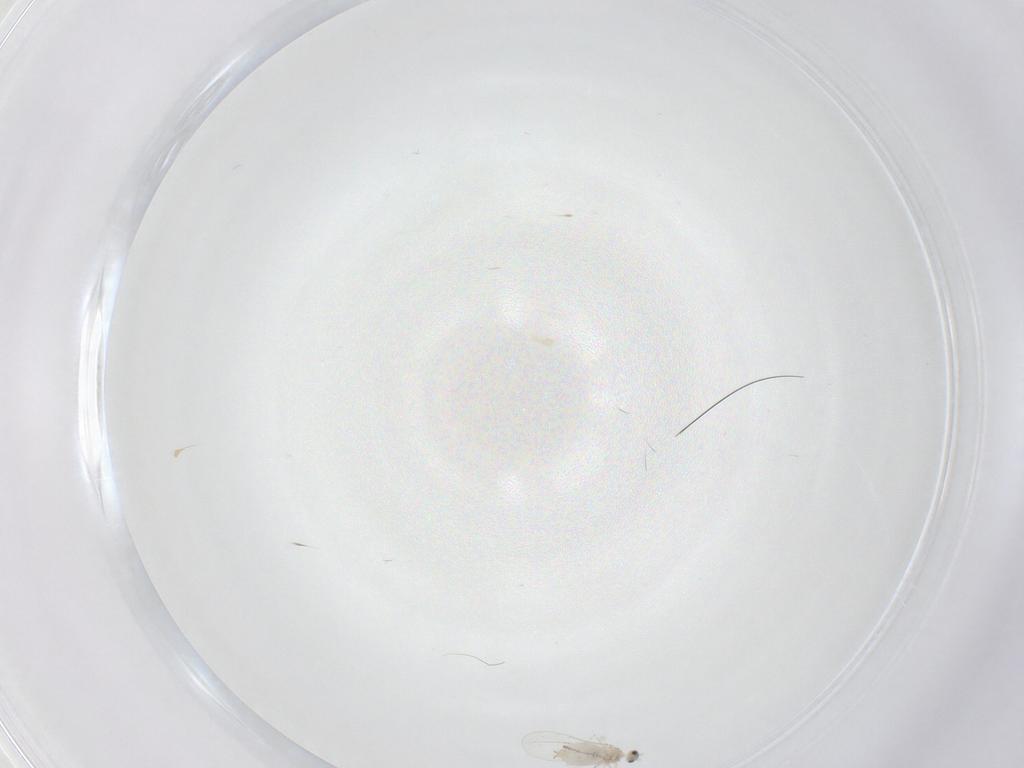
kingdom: Animalia
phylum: Arthropoda
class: Insecta
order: Diptera
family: Cecidomyiidae
